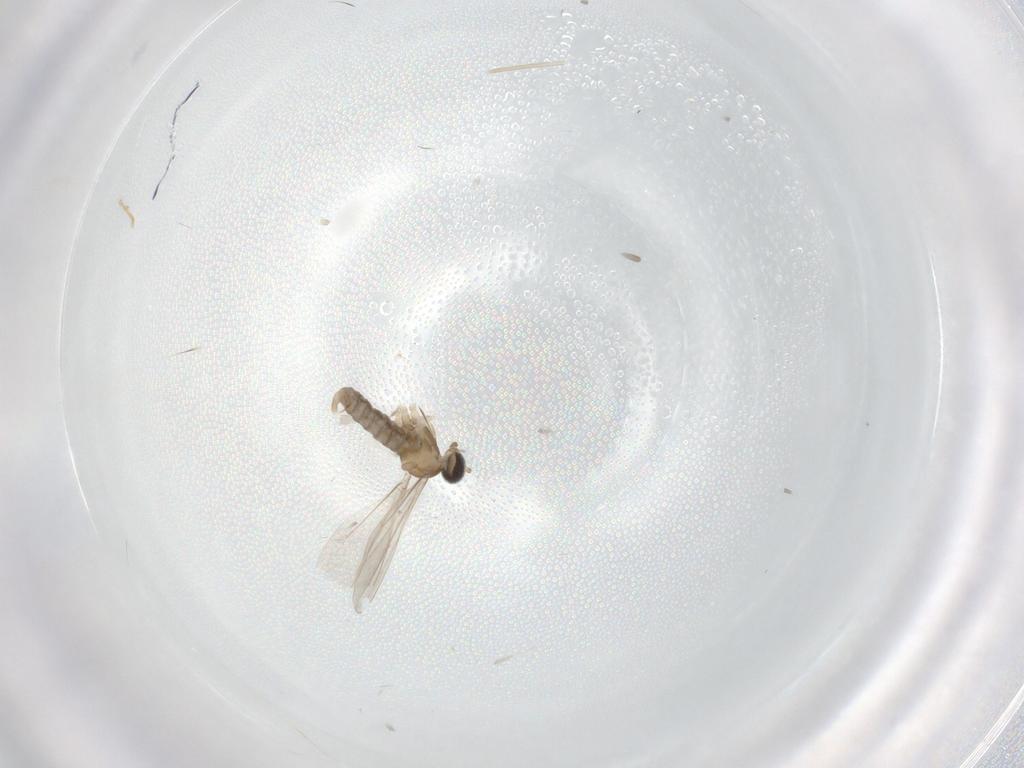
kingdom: Animalia
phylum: Arthropoda
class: Insecta
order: Diptera
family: Cecidomyiidae
